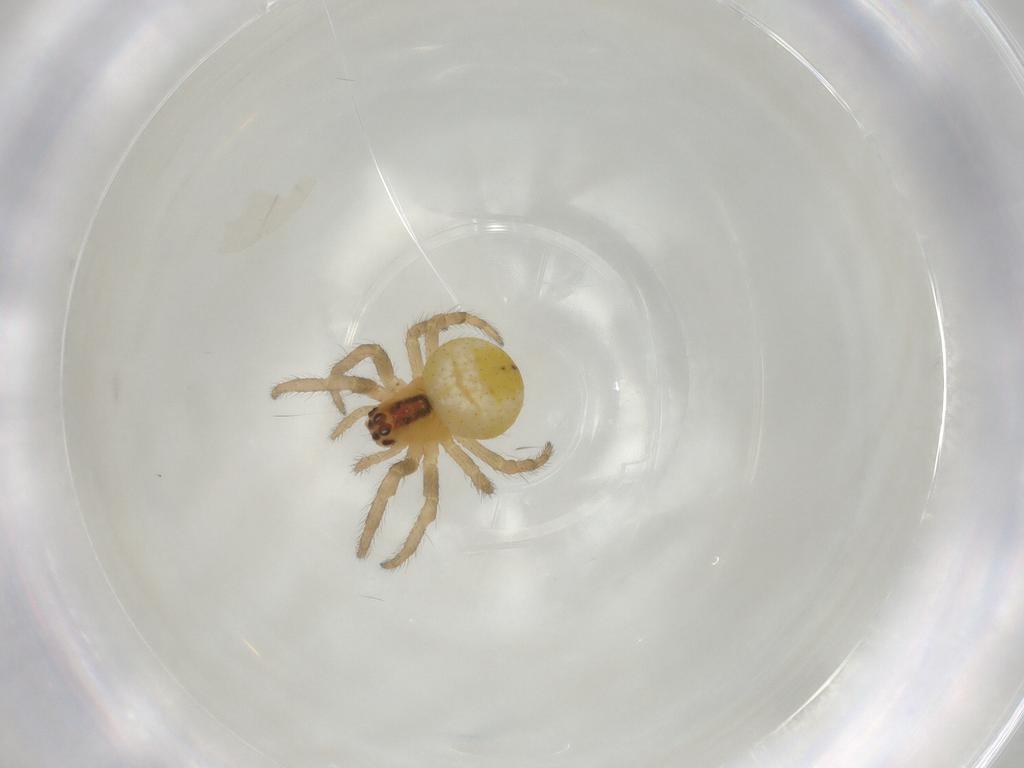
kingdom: Animalia
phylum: Arthropoda
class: Arachnida
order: Araneae
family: Araneidae
